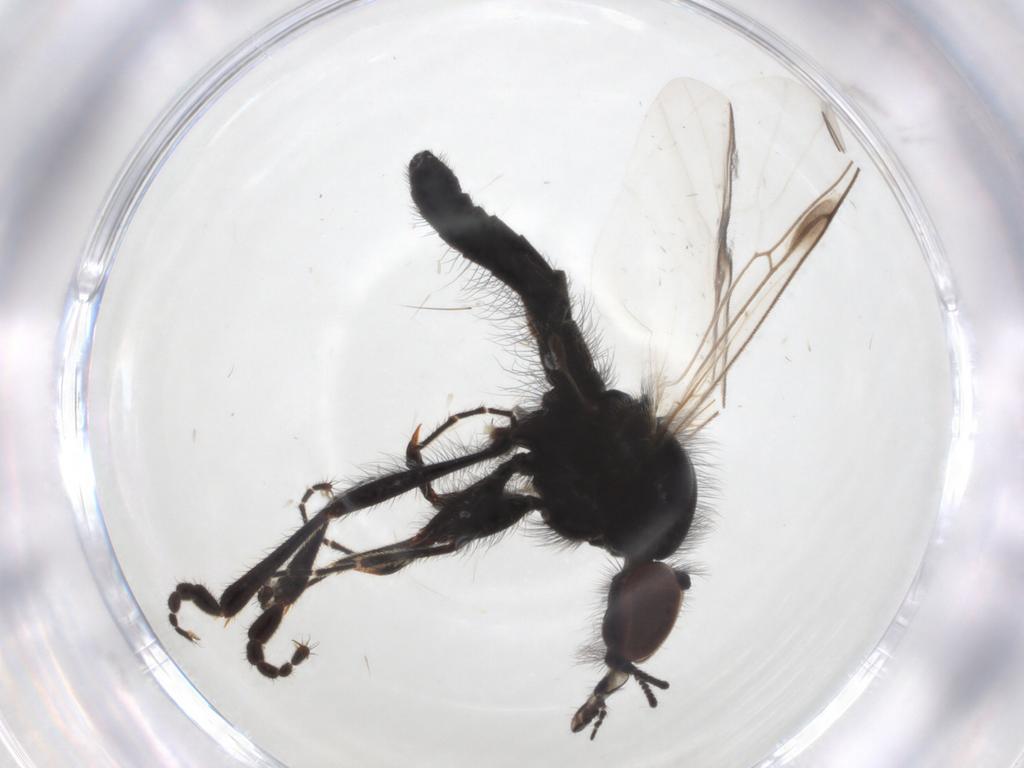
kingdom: Animalia
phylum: Arthropoda
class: Insecta
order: Diptera
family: Bibionidae
